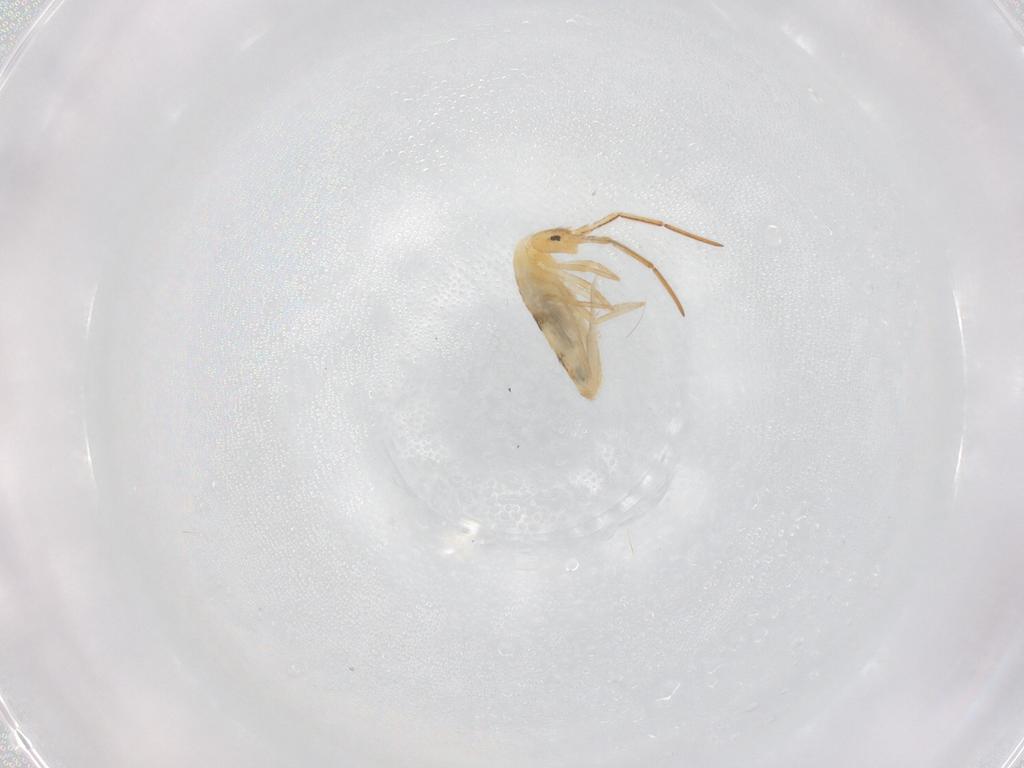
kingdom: Animalia
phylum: Arthropoda
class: Collembola
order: Entomobryomorpha
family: Entomobryidae
